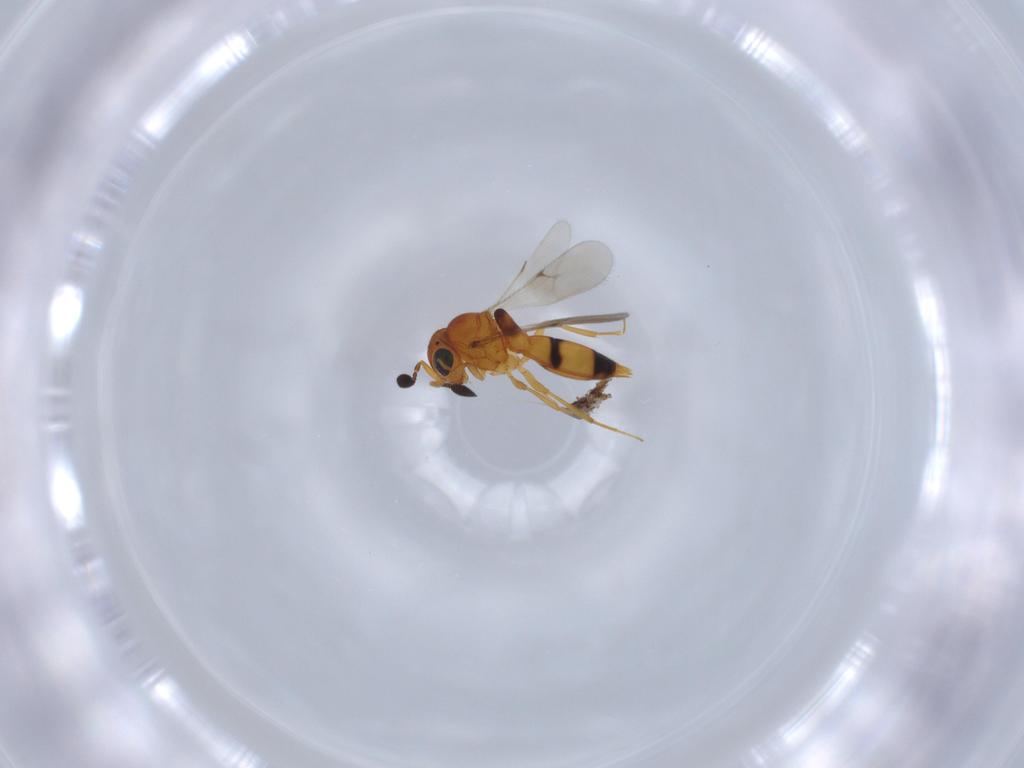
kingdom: Animalia
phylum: Arthropoda
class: Insecta
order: Hymenoptera
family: Scelionidae
